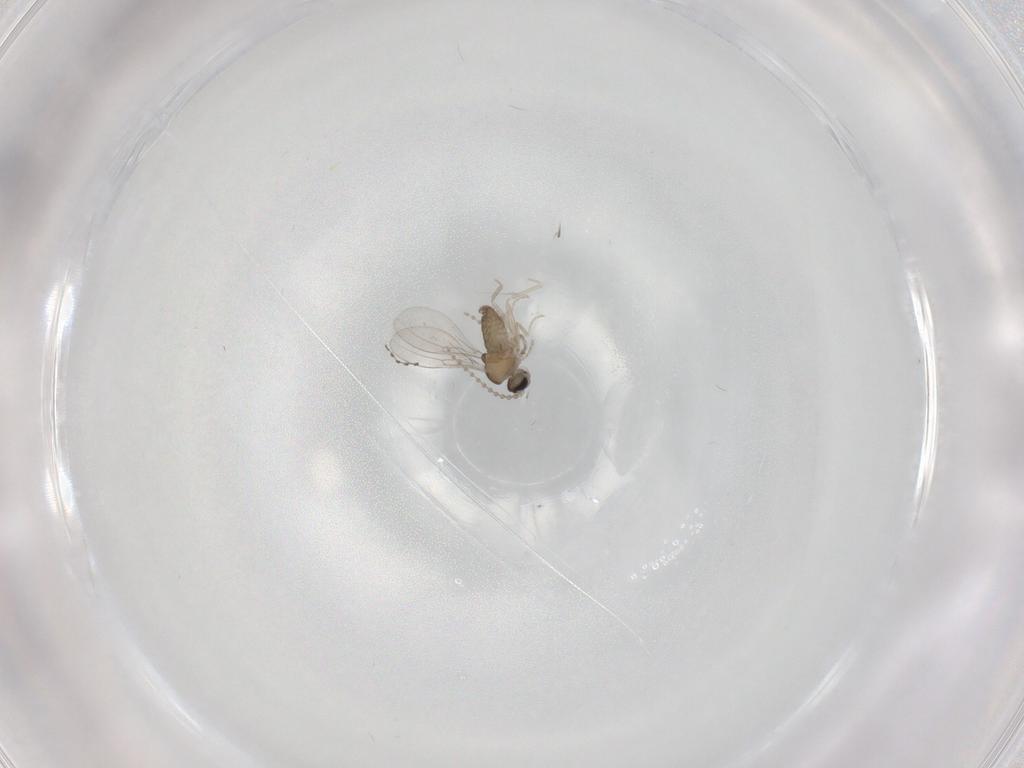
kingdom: Animalia
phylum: Arthropoda
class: Insecta
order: Diptera
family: Cecidomyiidae
